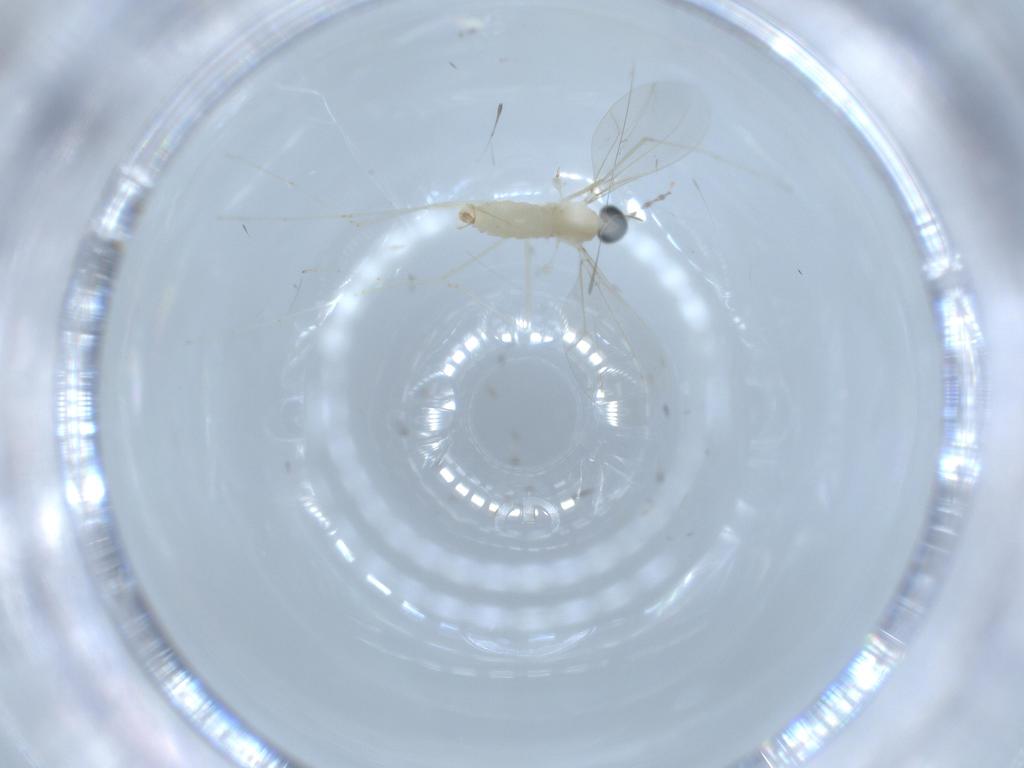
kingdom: Animalia
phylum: Arthropoda
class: Insecta
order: Diptera
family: Cecidomyiidae
